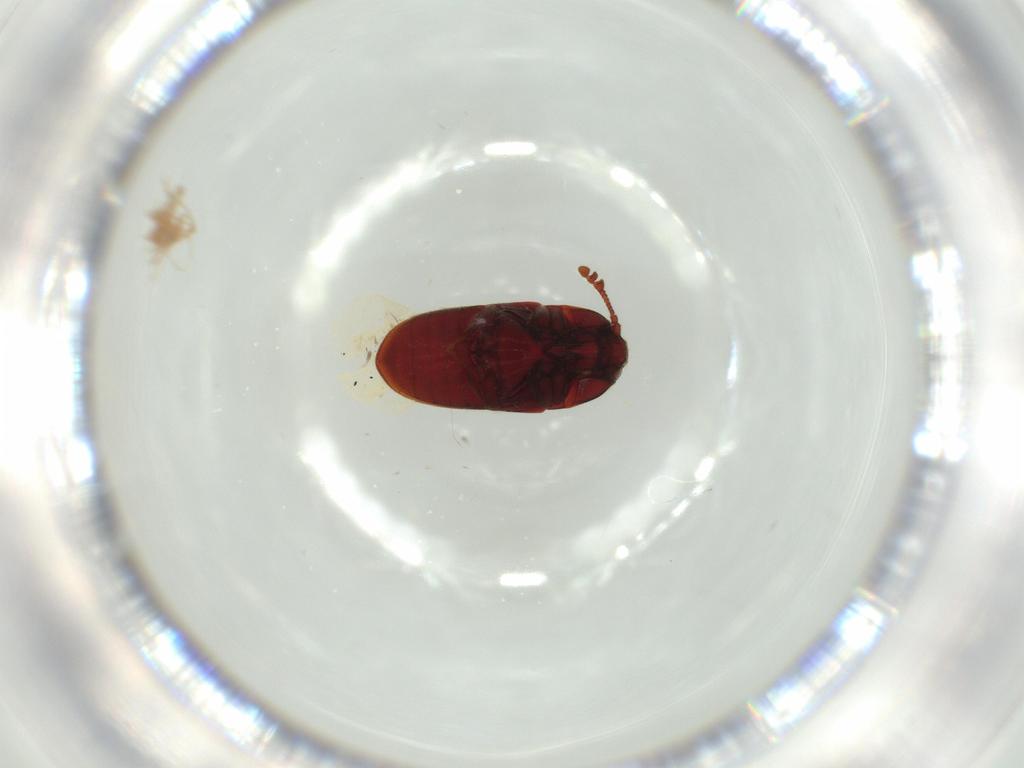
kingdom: Animalia
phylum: Arthropoda
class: Insecta
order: Coleoptera
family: Throscidae
